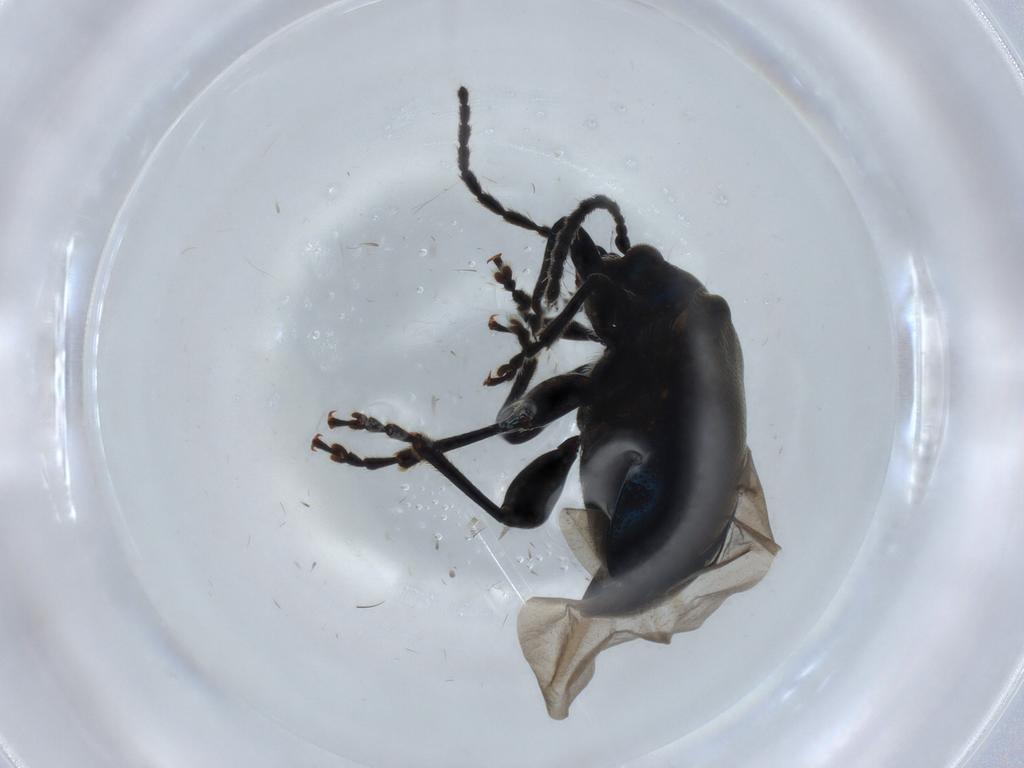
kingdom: Animalia
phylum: Arthropoda
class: Insecta
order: Coleoptera
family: Chrysomelidae
